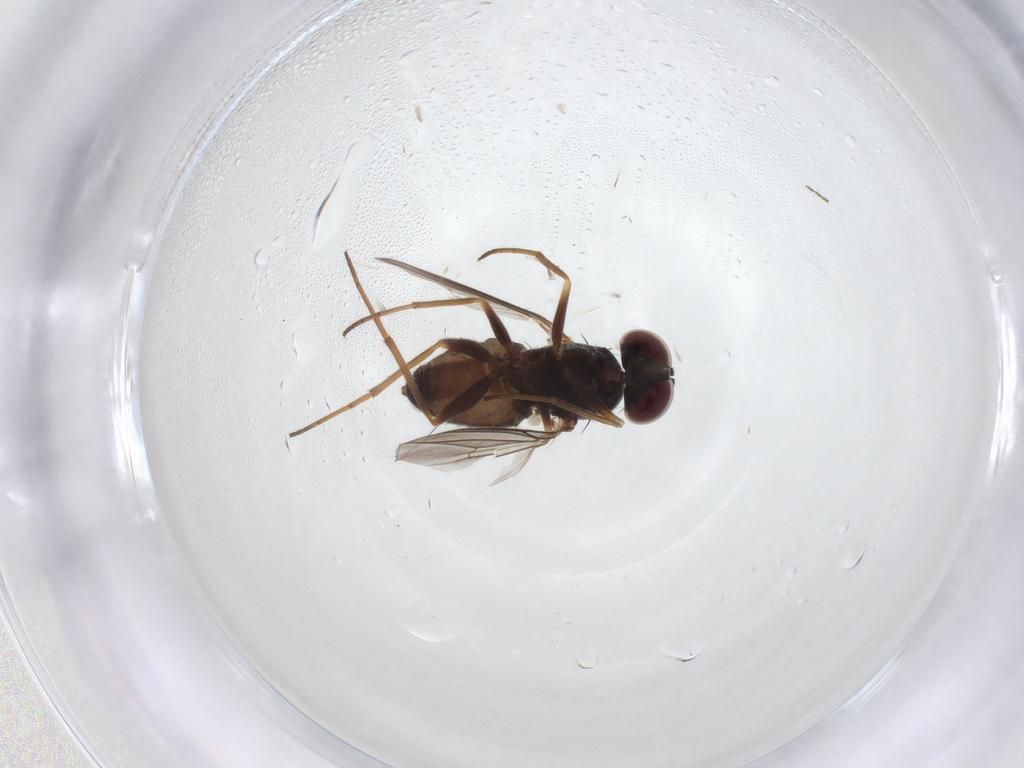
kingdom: Animalia
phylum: Arthropoda
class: Insecta
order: Diptera
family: Dolichopodidae
